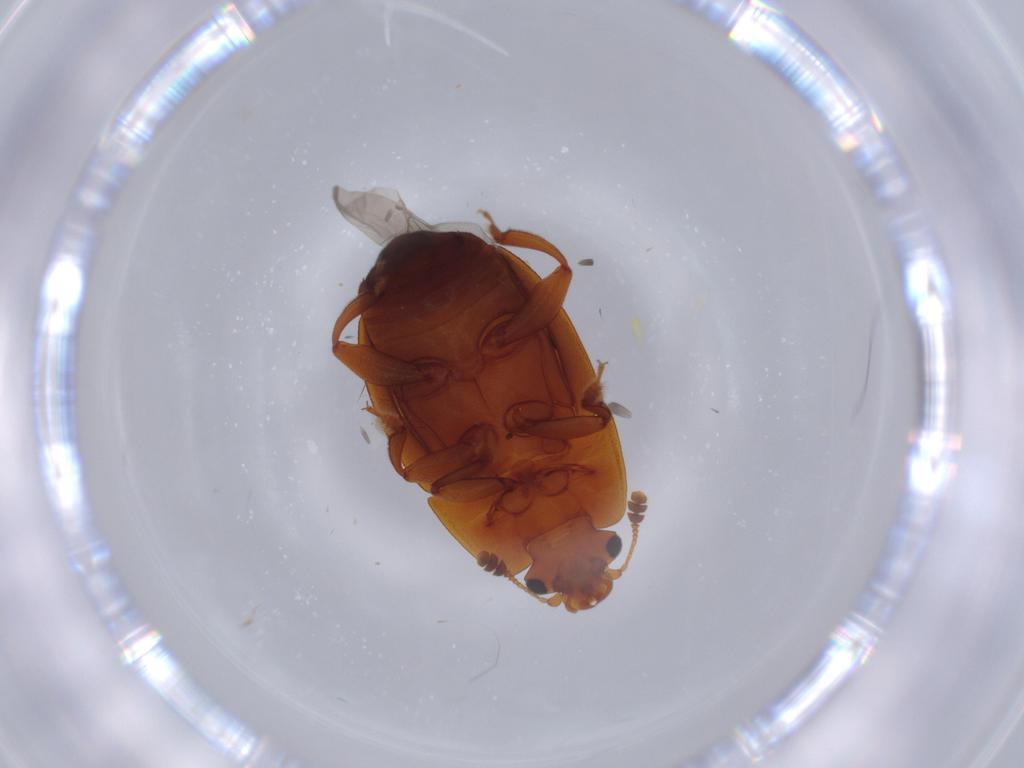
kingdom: Animalia
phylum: Arthropoda
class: Insecta
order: Coleoptera
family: Nitidulidae
